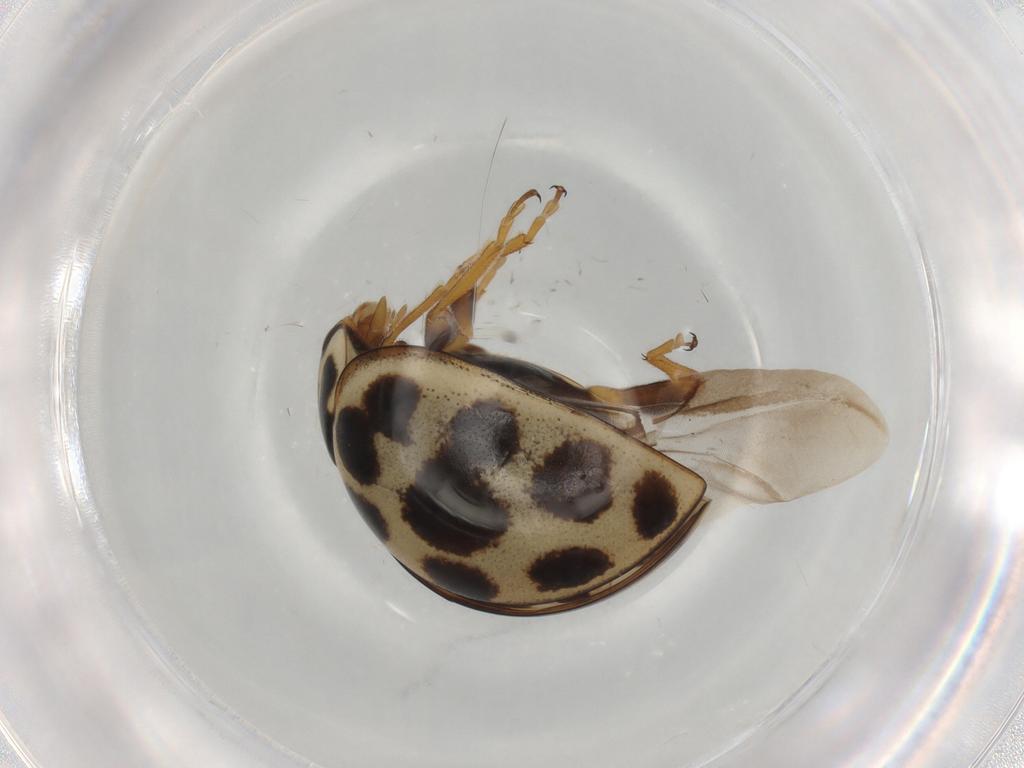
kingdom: Animalia
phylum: Arthropoda
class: Insecta
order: Coleoptera
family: Coccinellidae
